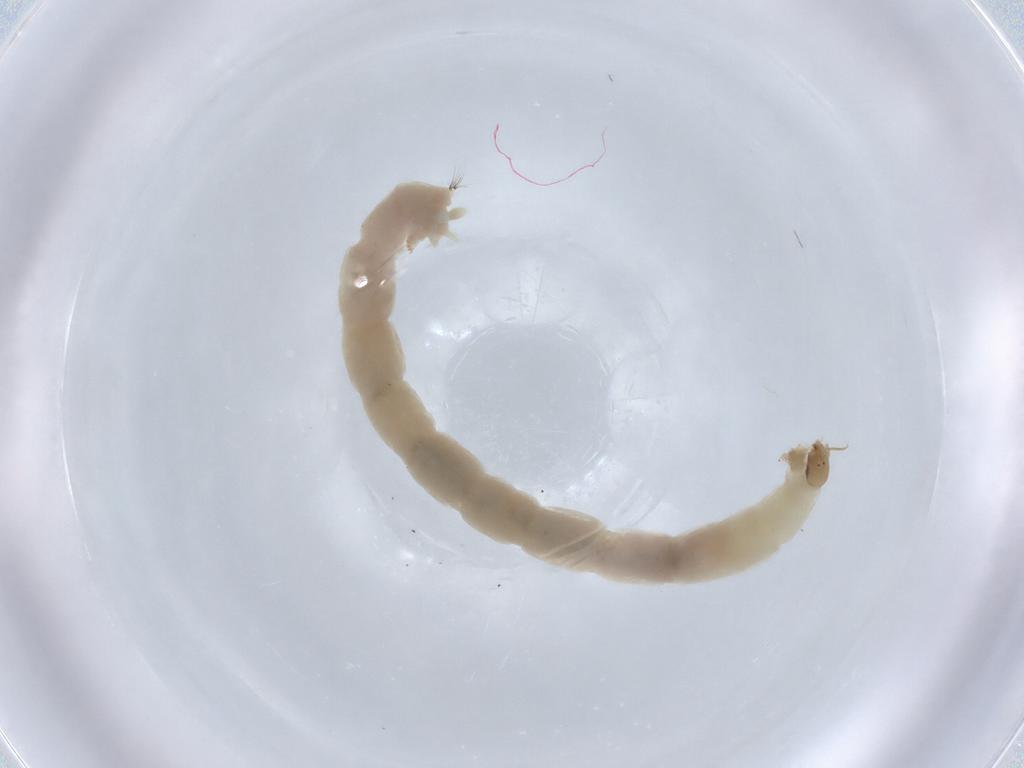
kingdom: Animalia
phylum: Arthropoda
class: Insecta
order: Diptera
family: Chironomidae
